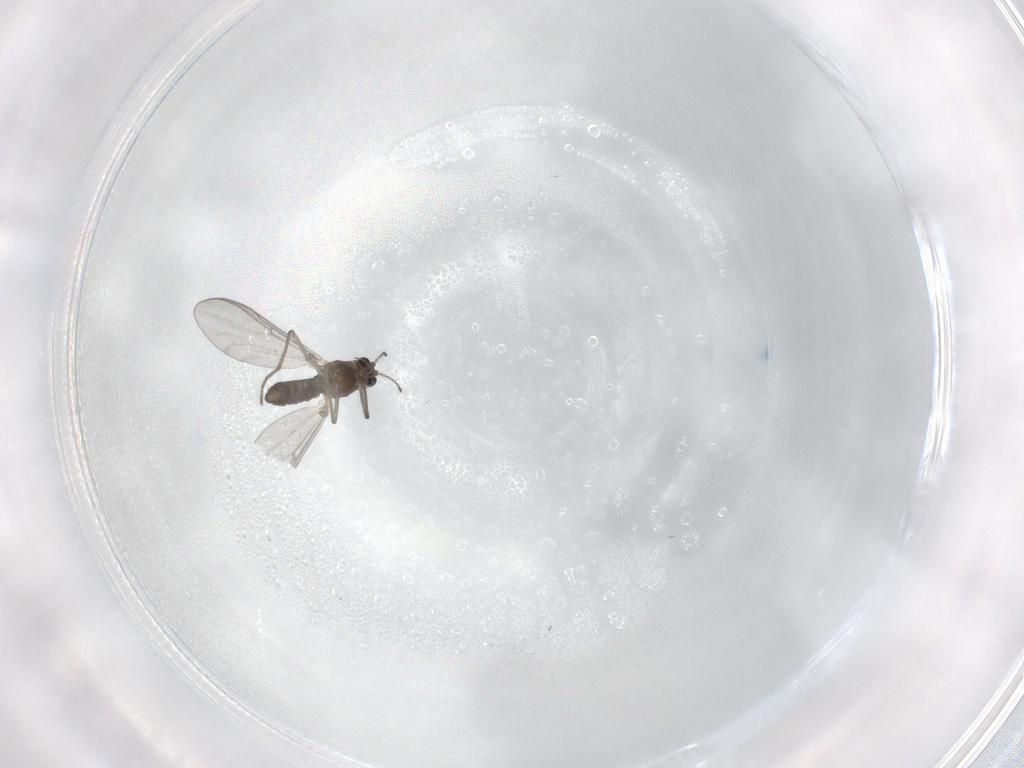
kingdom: Animalia
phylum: Arthropoda
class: Insecta
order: Diptera
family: Chironomidae
